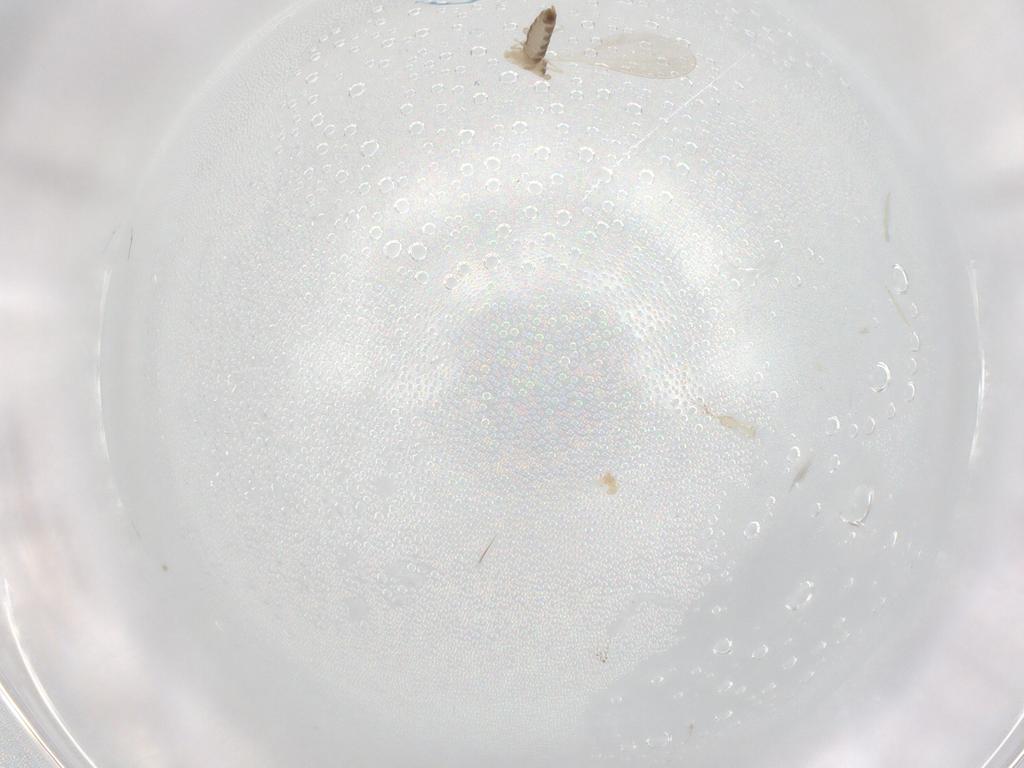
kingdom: Animalia
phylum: Arthropoda
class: Insecta
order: Diptera
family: Cecidomyiidae
